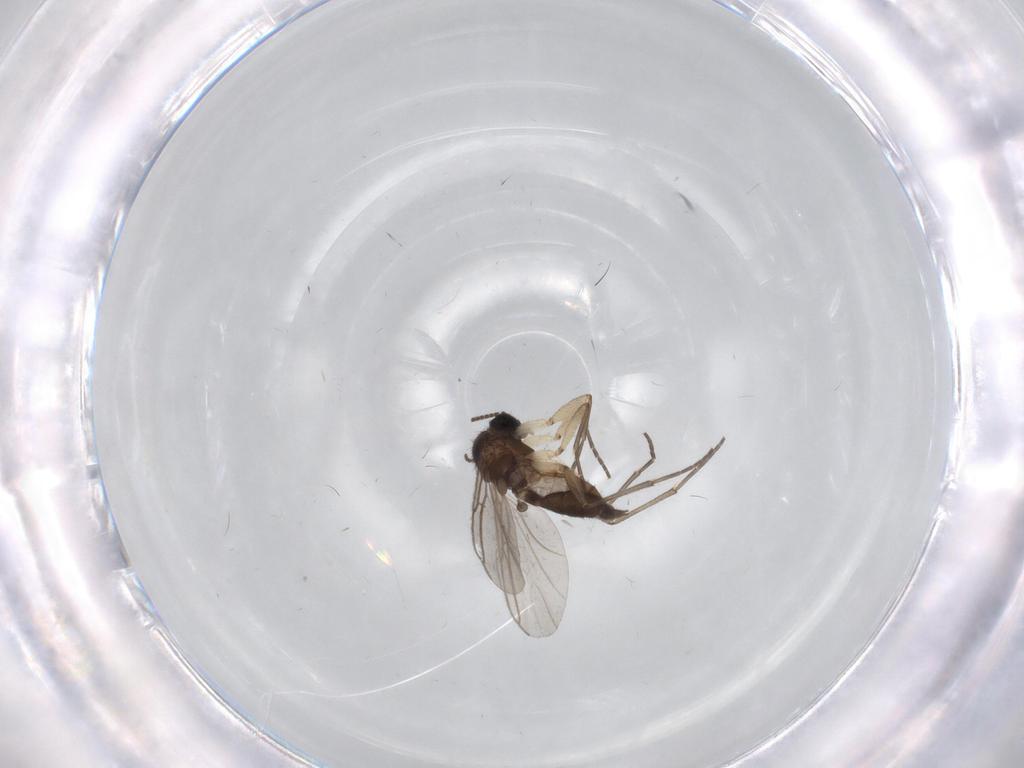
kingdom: Animalia
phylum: Arthropoda
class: Insecta
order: Diptera
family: Sciaridae
